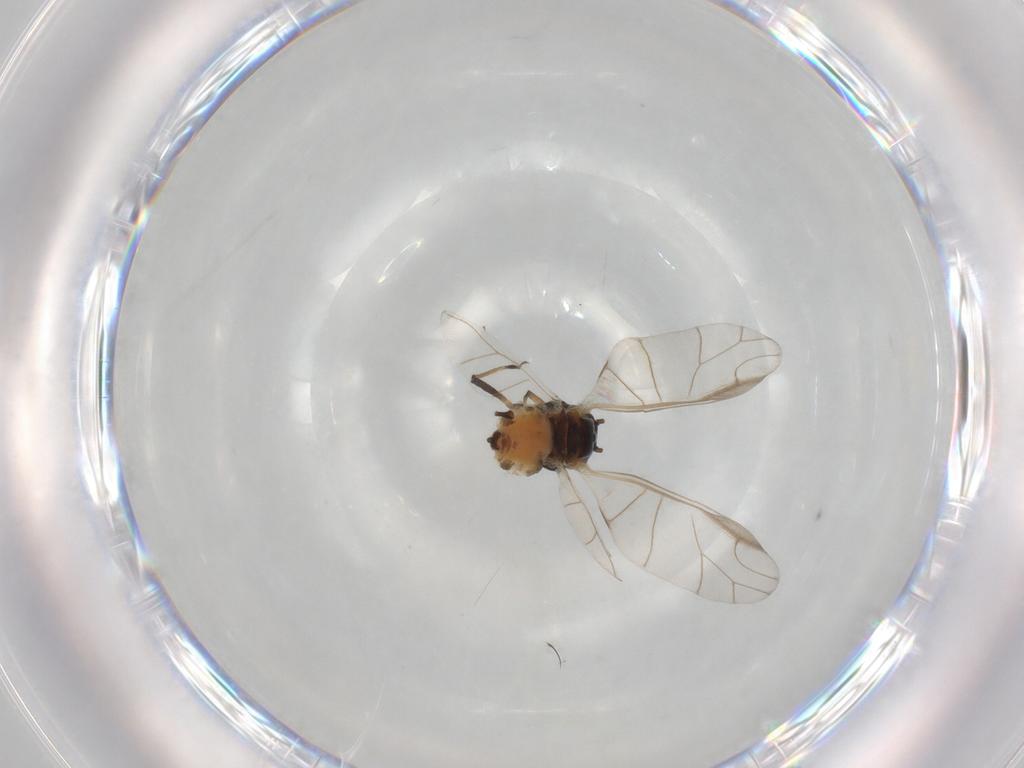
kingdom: Animalia
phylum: Arthropoda
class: Insecta
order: Hemiptera
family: Aphididae
